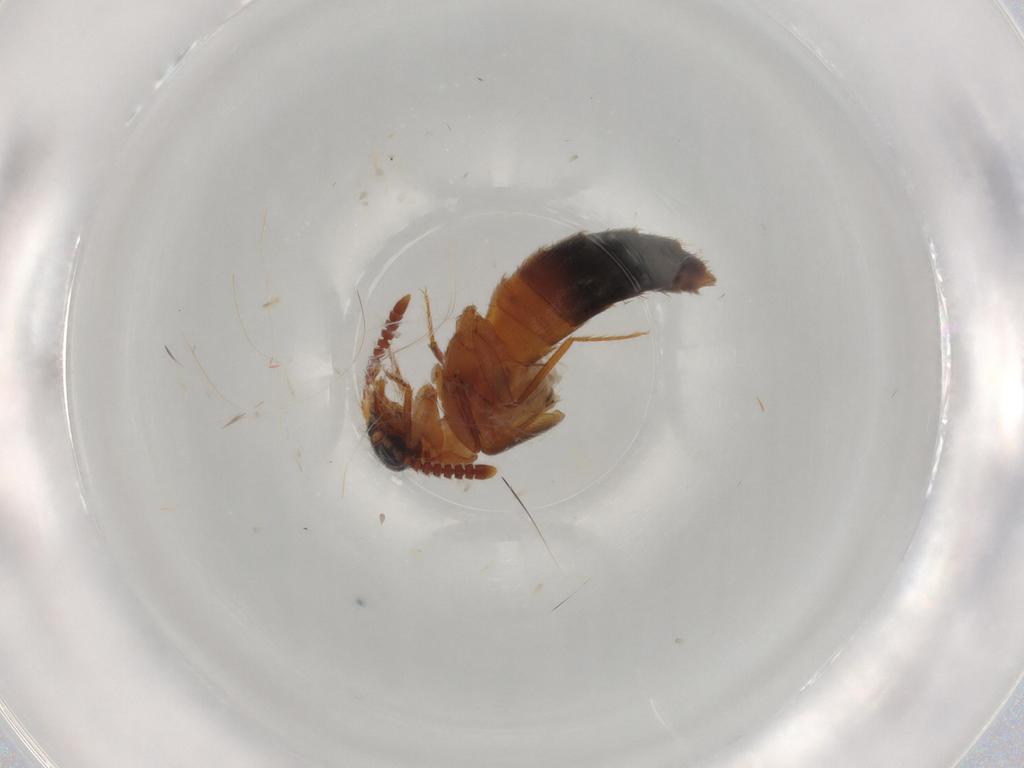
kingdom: Animalia
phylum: Arthropoda
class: Insecta
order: Coleoptera
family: Staphylinidae
